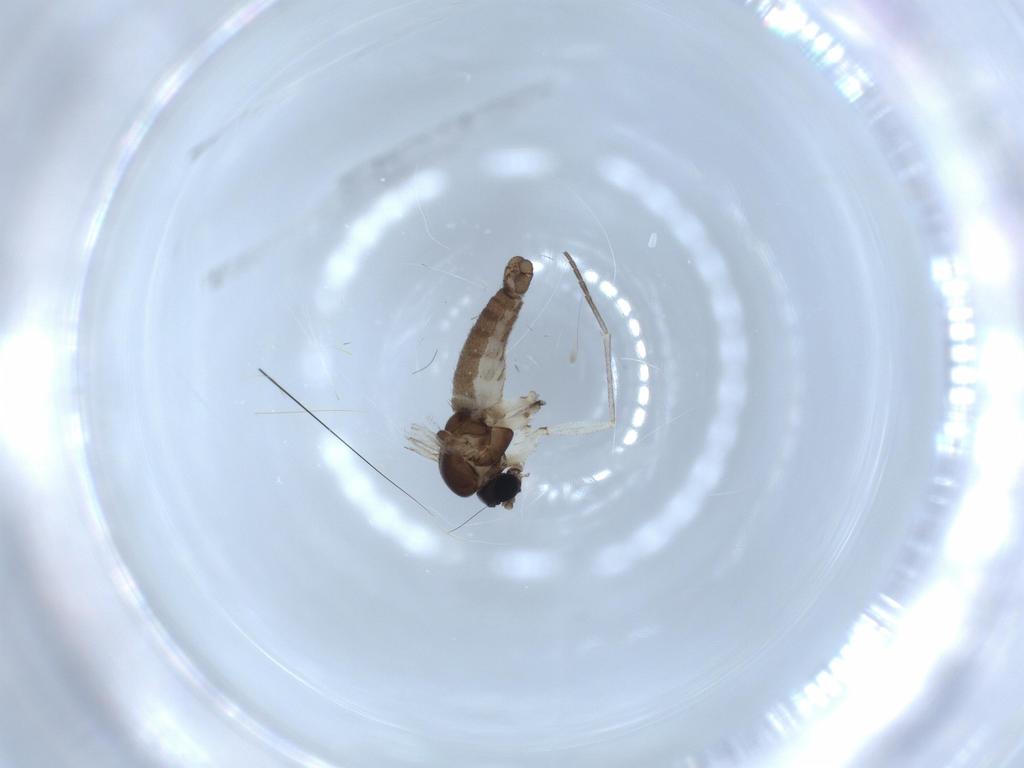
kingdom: Animalia
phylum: Arthropoda
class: Insecta
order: Diptera
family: Sciaridae
